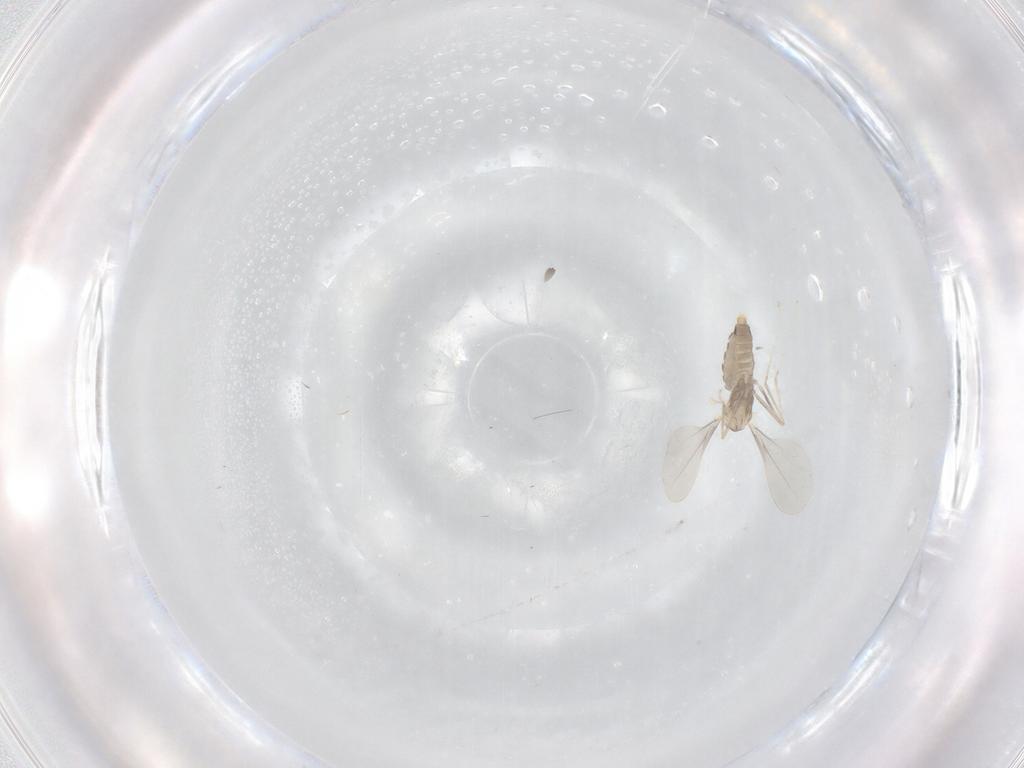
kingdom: Animalia
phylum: Arthropoda
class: Insecta
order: Diptera
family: Cecidomyiidae
